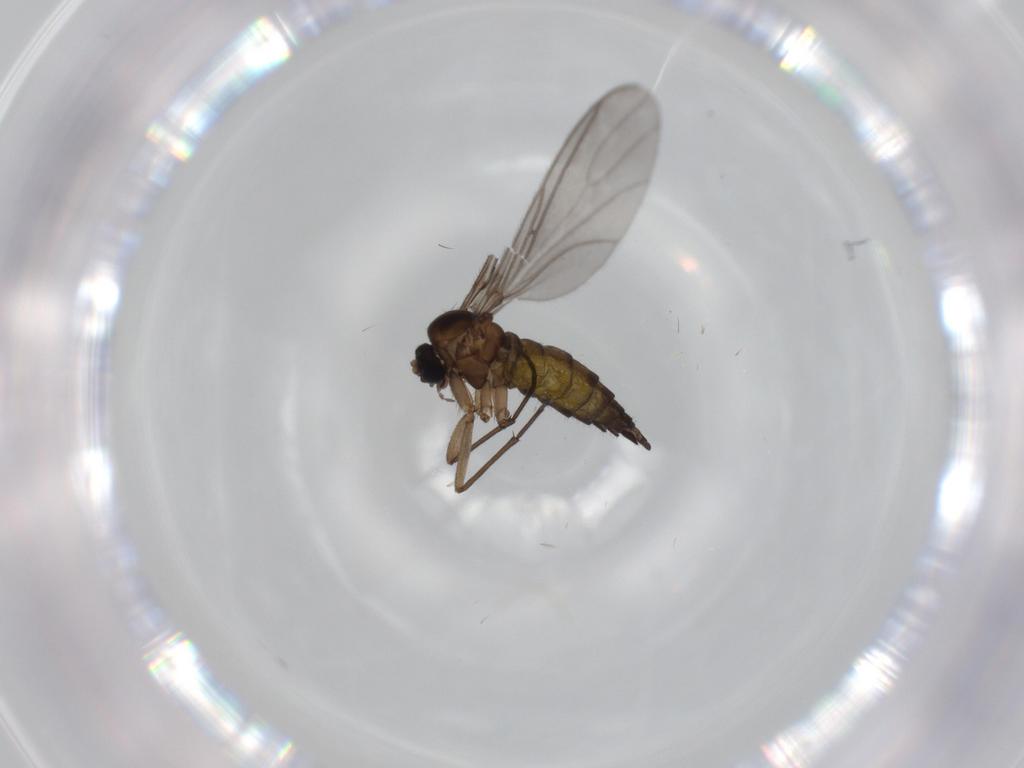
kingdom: Animalia
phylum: Arthropoda
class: Insecta
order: Diptera
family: Sciaridae
